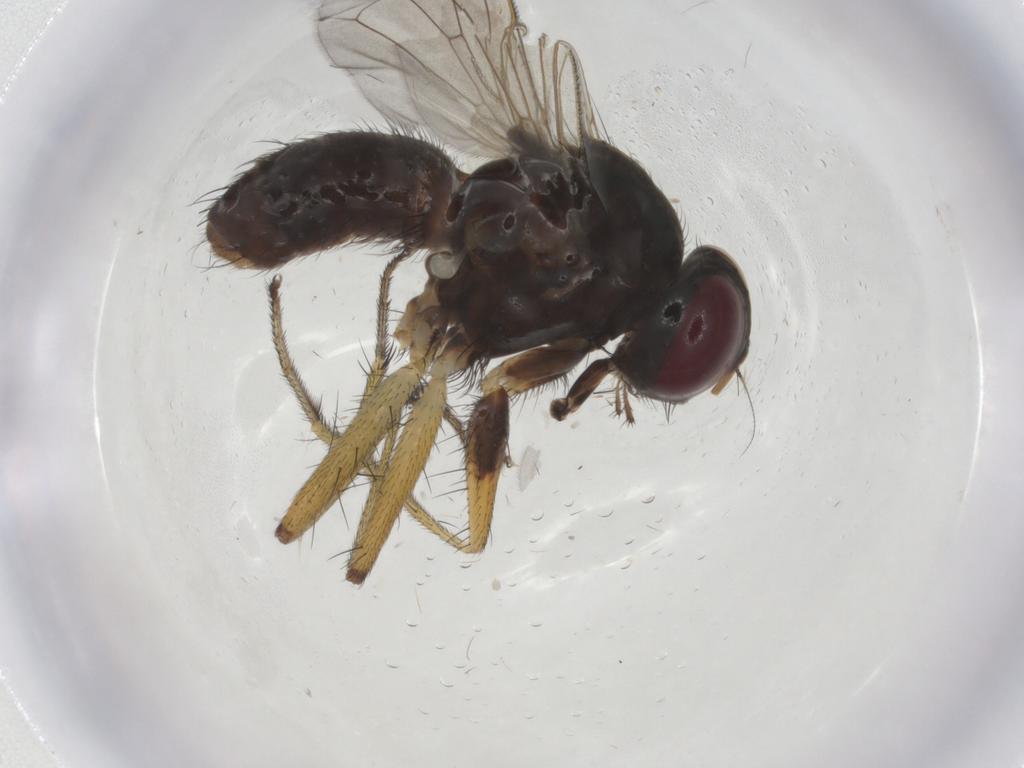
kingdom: Animalia
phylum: Arthropoda
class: Insecta
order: Diptera
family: Muscidae
